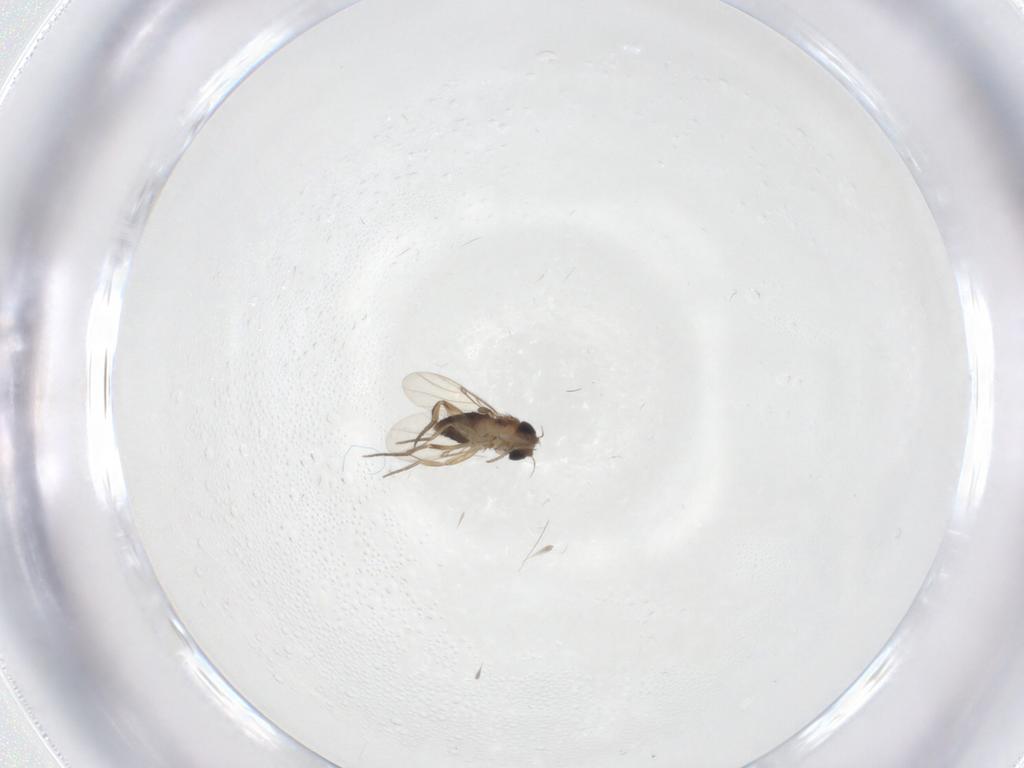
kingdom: Animalia
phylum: Arthropoda
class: Insecta
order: Diptera
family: Phoridae
